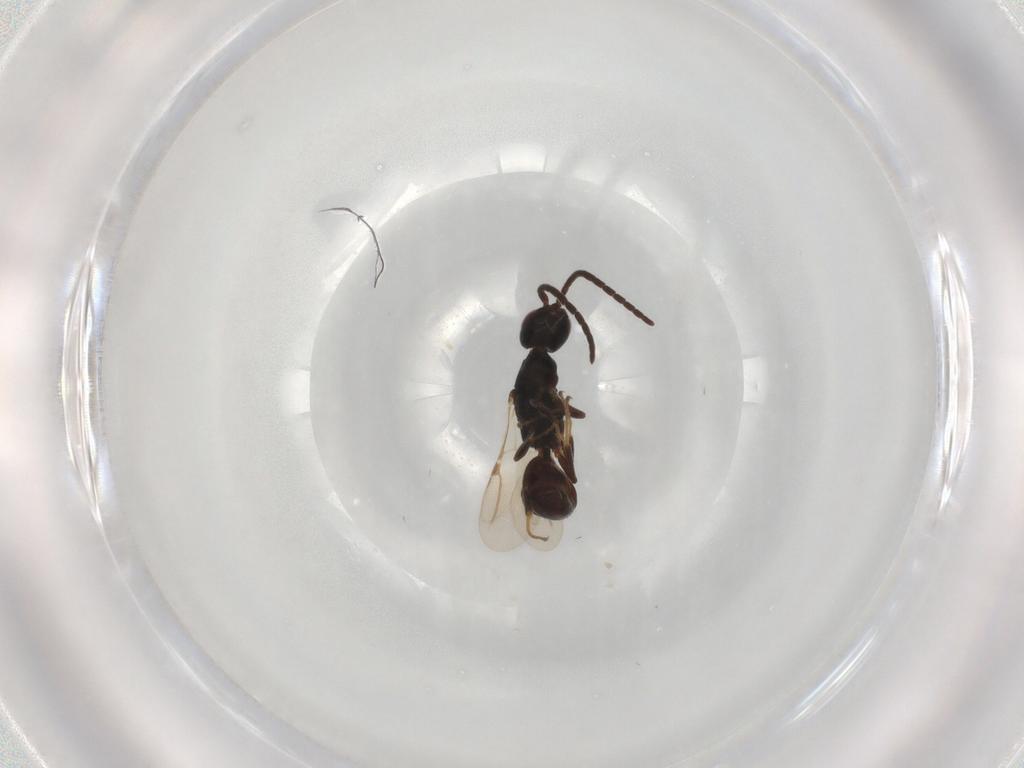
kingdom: Animalia
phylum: Arthropoda
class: Insecta
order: Hymenoptera
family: Bethylidae
